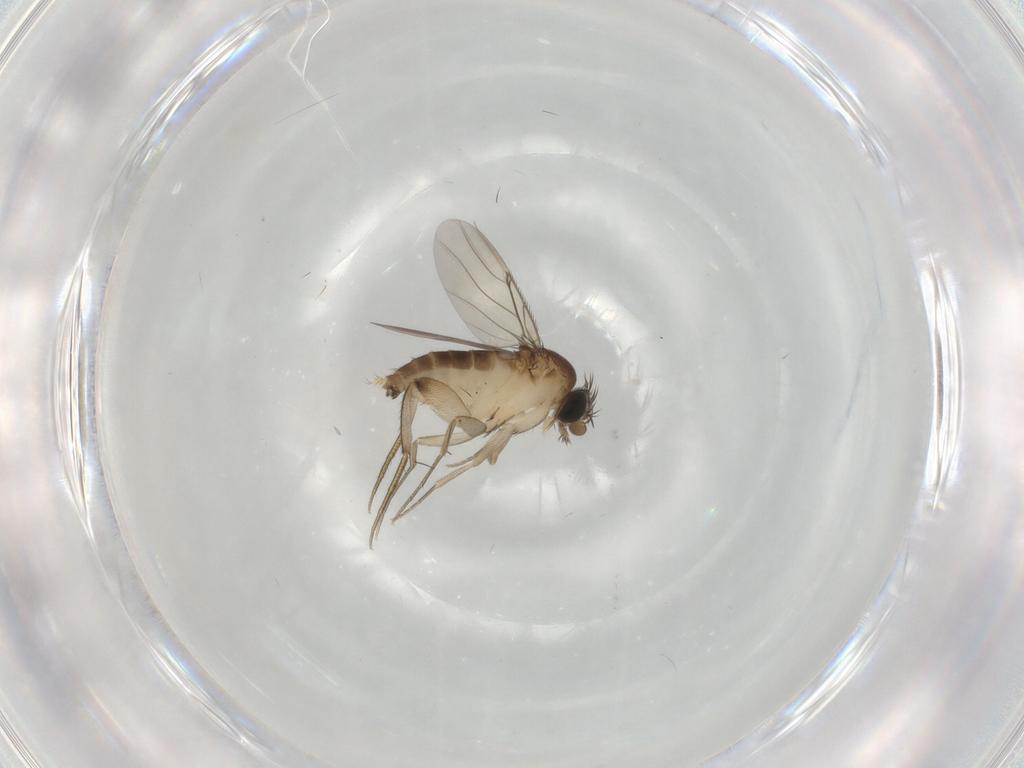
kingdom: Animalia
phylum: Arthropoda
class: Insecta
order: Diptera
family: Phoridae
